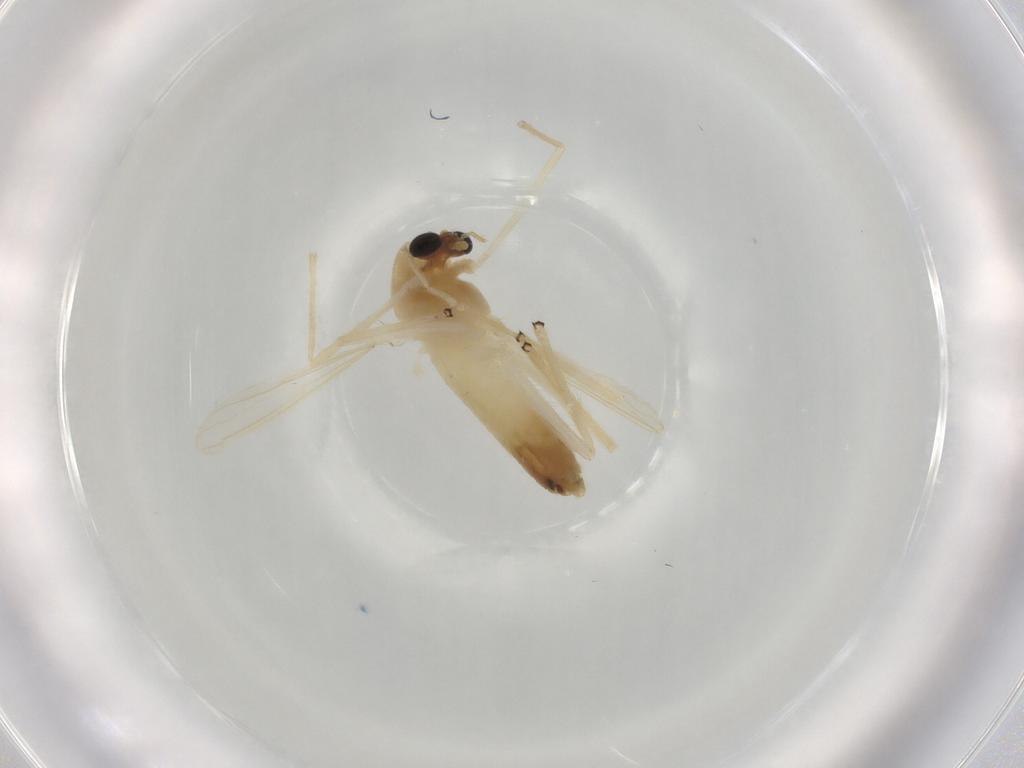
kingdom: Animalia
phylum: Arthropoda
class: Insecta
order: Diptera
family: Chironomidae
